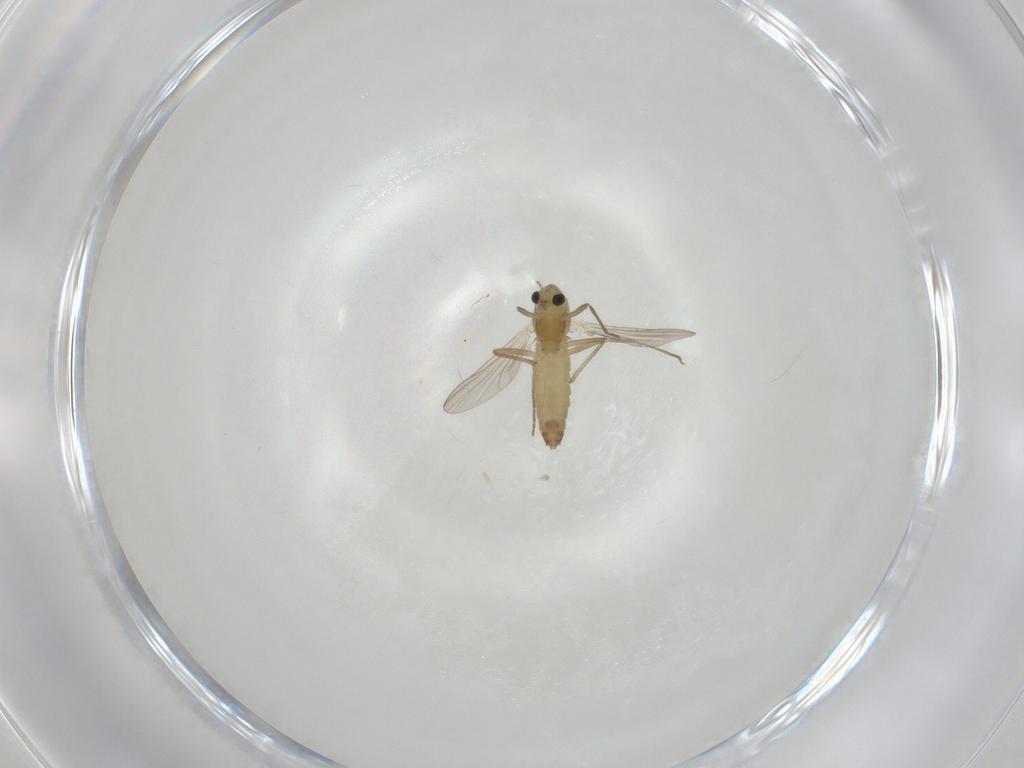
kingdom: Animalia
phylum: Arthropoda
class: Insecta
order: Diptera
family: Chironomidae
